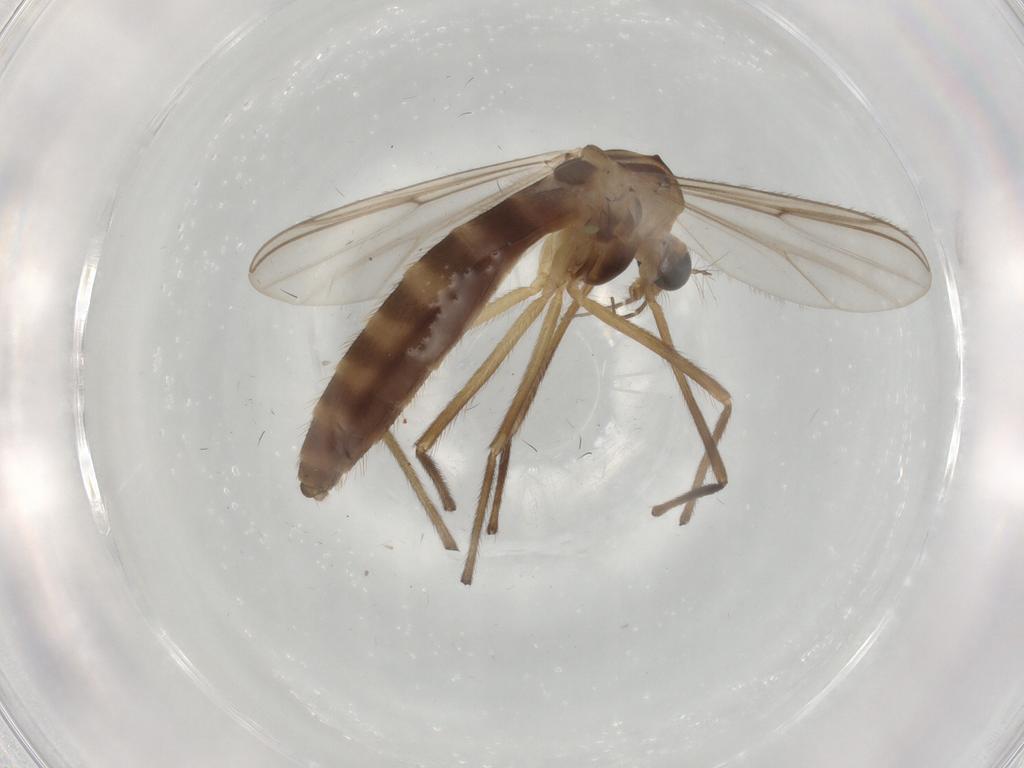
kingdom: Animalia
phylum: Arthropoda
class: Insecta
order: Diptera
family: Chironomidae
